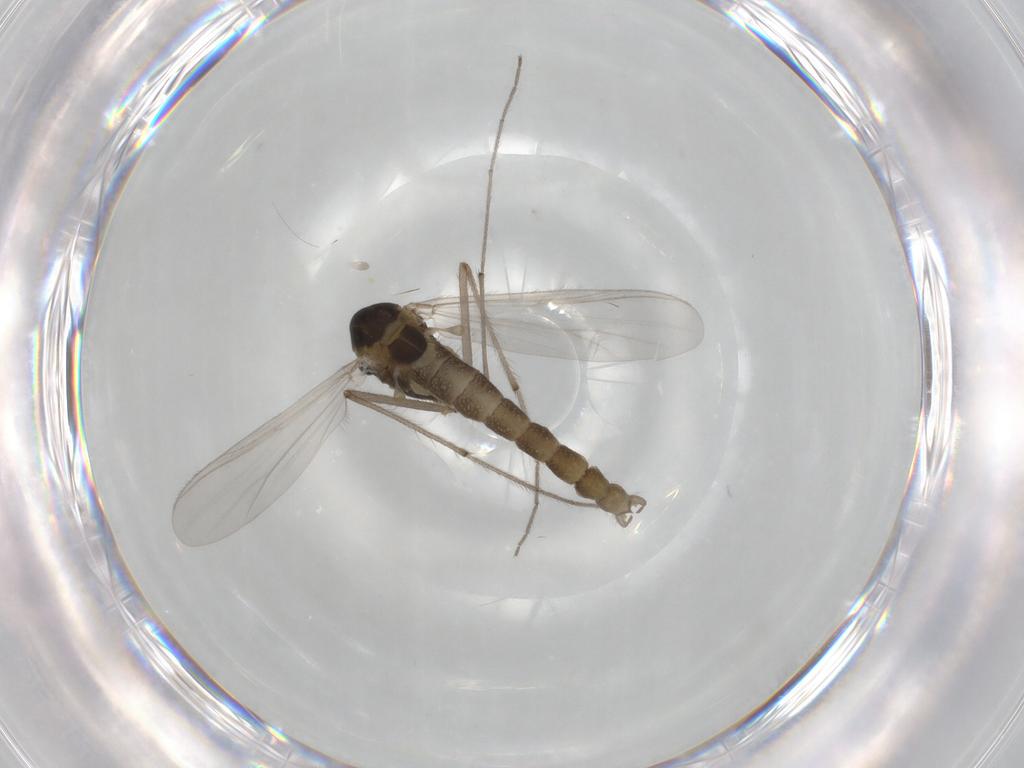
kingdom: Animalia
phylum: Arthropoda
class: Insecta
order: Diptera
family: Chironomidae
